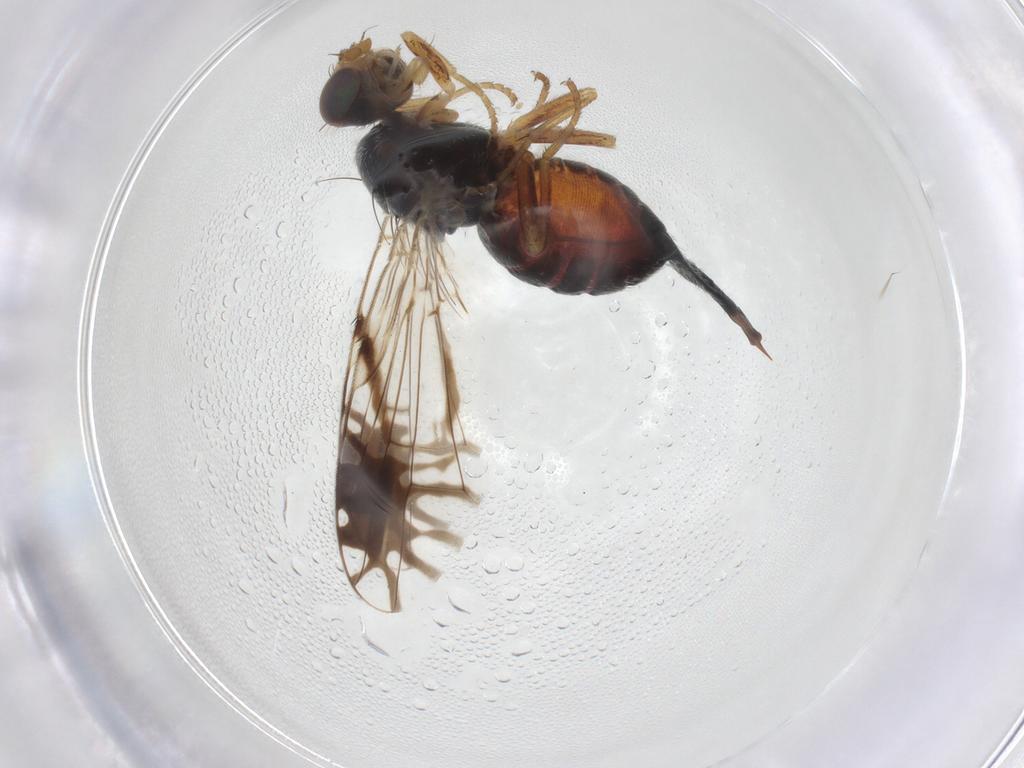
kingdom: Animalia
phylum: Arthropoda
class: Insecta
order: Diptera
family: Tephritidae
